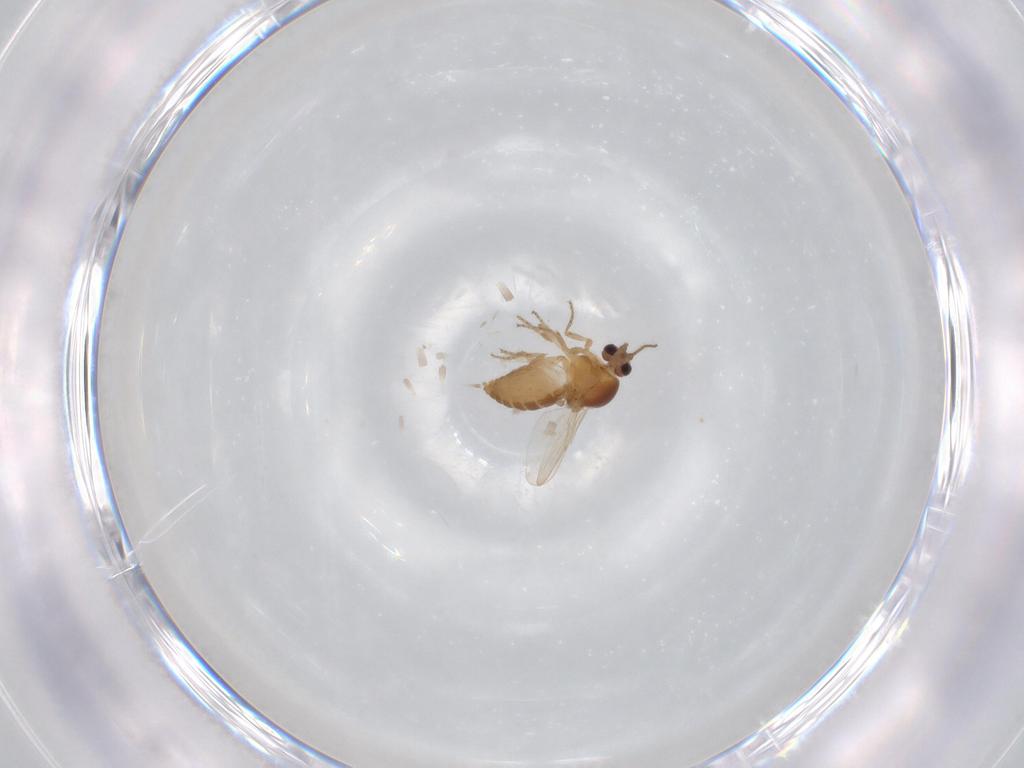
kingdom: Animalia
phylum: Arthropoda
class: Insecta
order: Diptera
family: Ceratopogonidae
